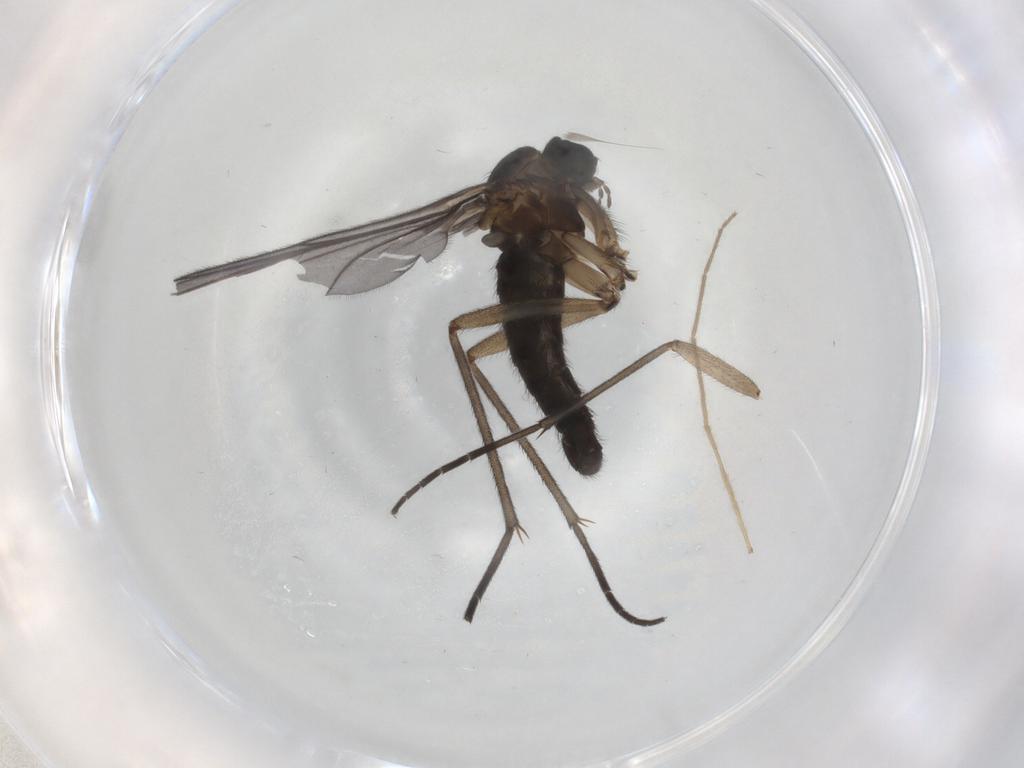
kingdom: Animalia
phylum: Arthropoda
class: Insecta
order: Diptera
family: Sciaridae
